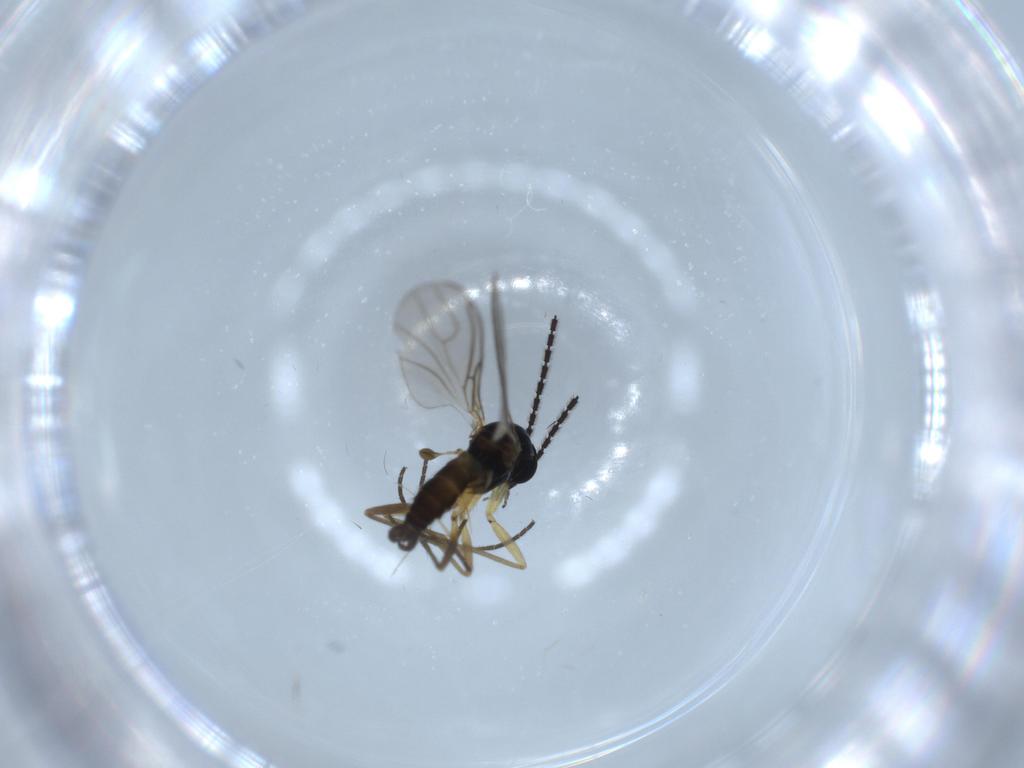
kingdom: Animalia
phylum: Arthropoda
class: Insecta
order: Diptera
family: Sciaridae
